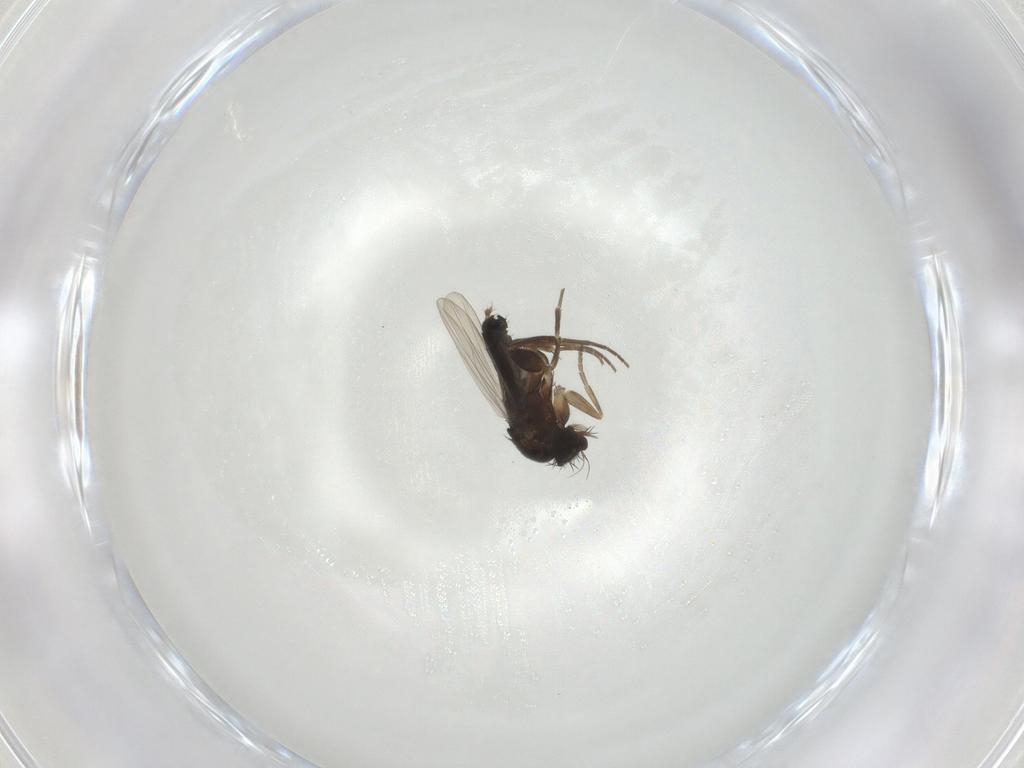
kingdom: Animalia
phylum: Arthropoda
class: Insecta
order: Diptera
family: Phoridae
